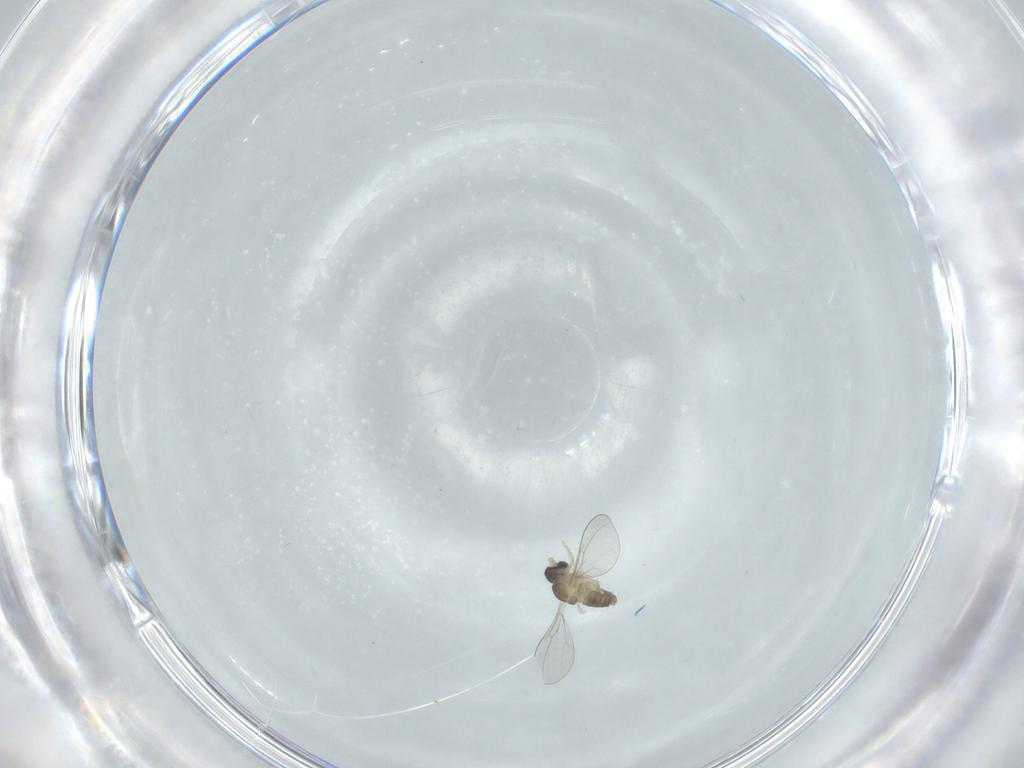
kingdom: Animalia
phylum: Arthropoda
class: Insecta
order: Diptera
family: Cecidomyiidae
